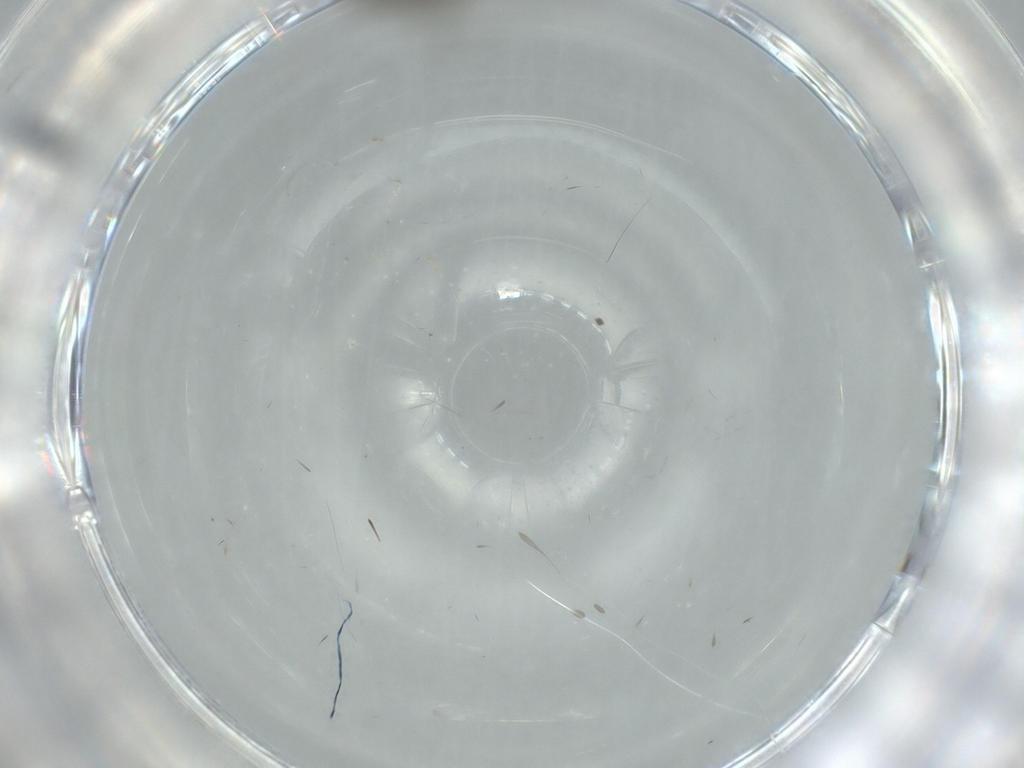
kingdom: Animalia
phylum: Arthropoda
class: Insecta
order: Diptera
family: Sciaridae
